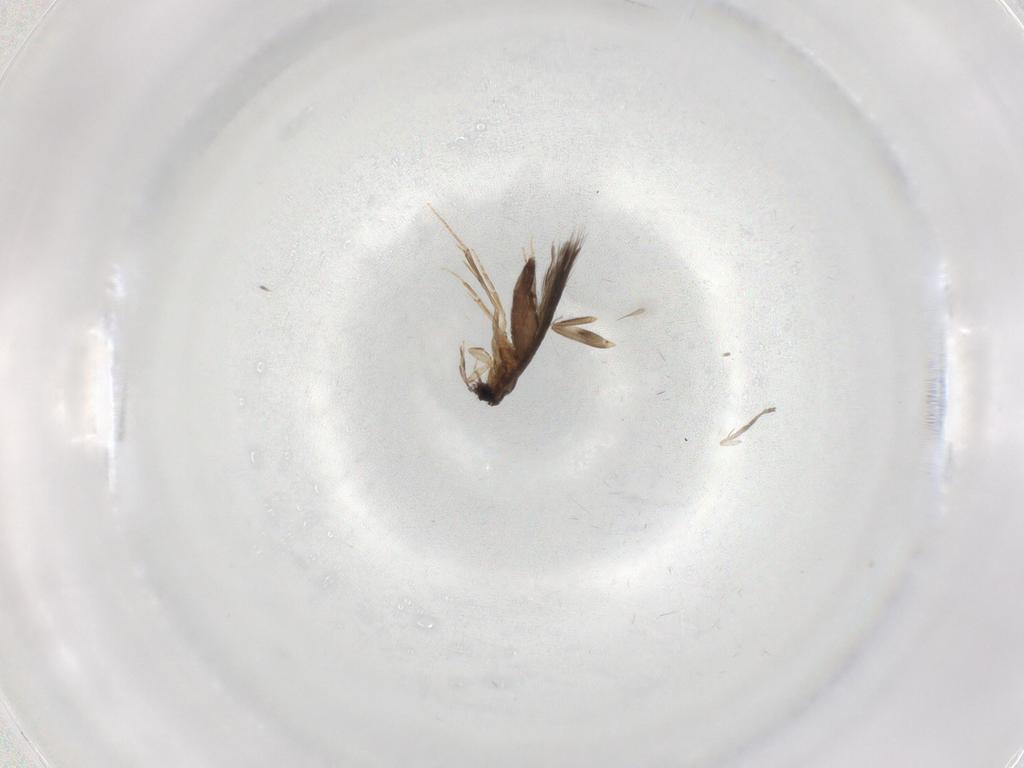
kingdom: Animalia
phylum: Arthropoda
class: Insecta
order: Trichoptera
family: Hydroptilidae
